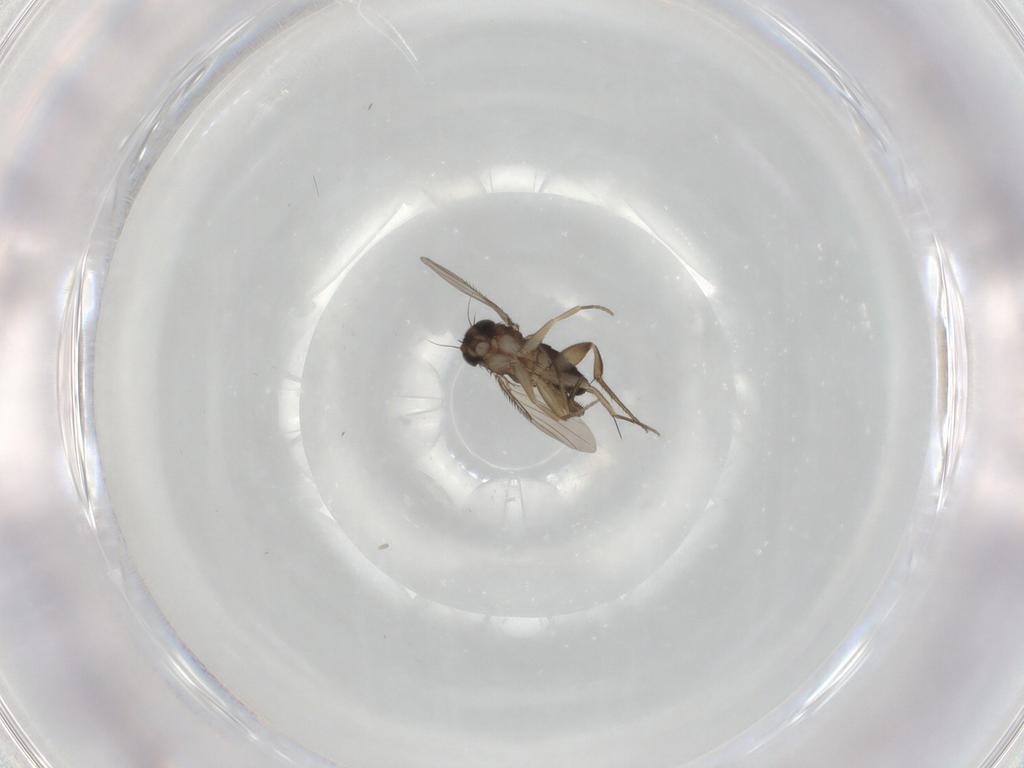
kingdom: Animalia
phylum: Arthropoda
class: Insecta
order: Diptera
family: Phoridae
